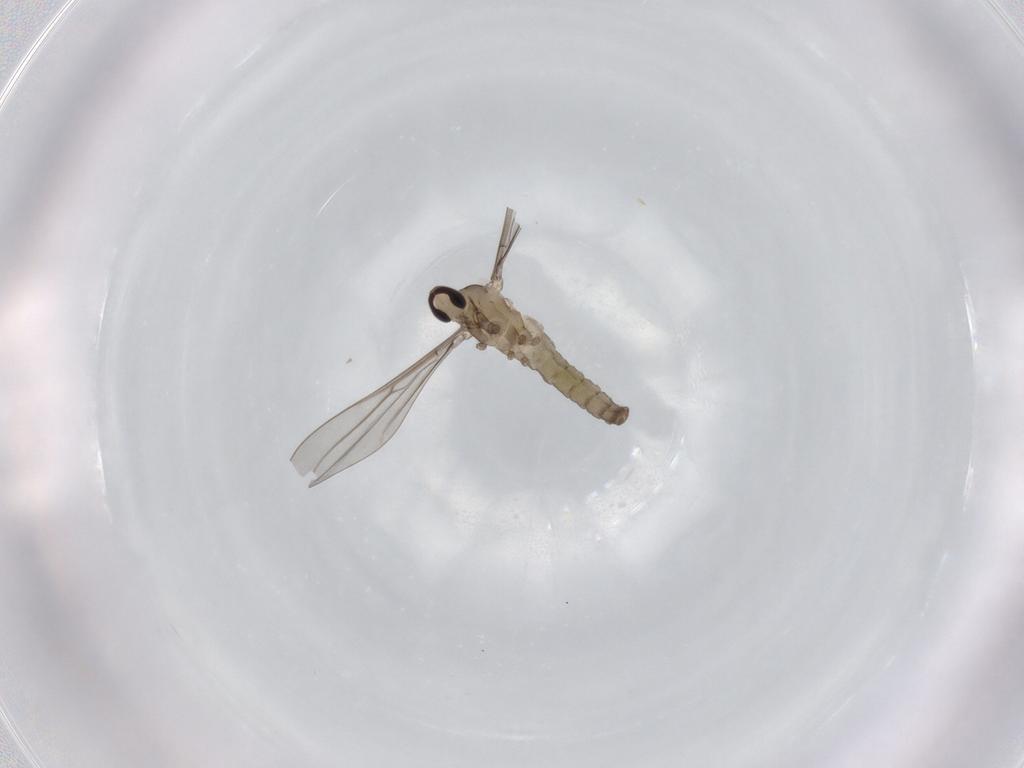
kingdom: Animalia
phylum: Arthropoda
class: Insecta
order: Diptera
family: Cecidomyiidae
